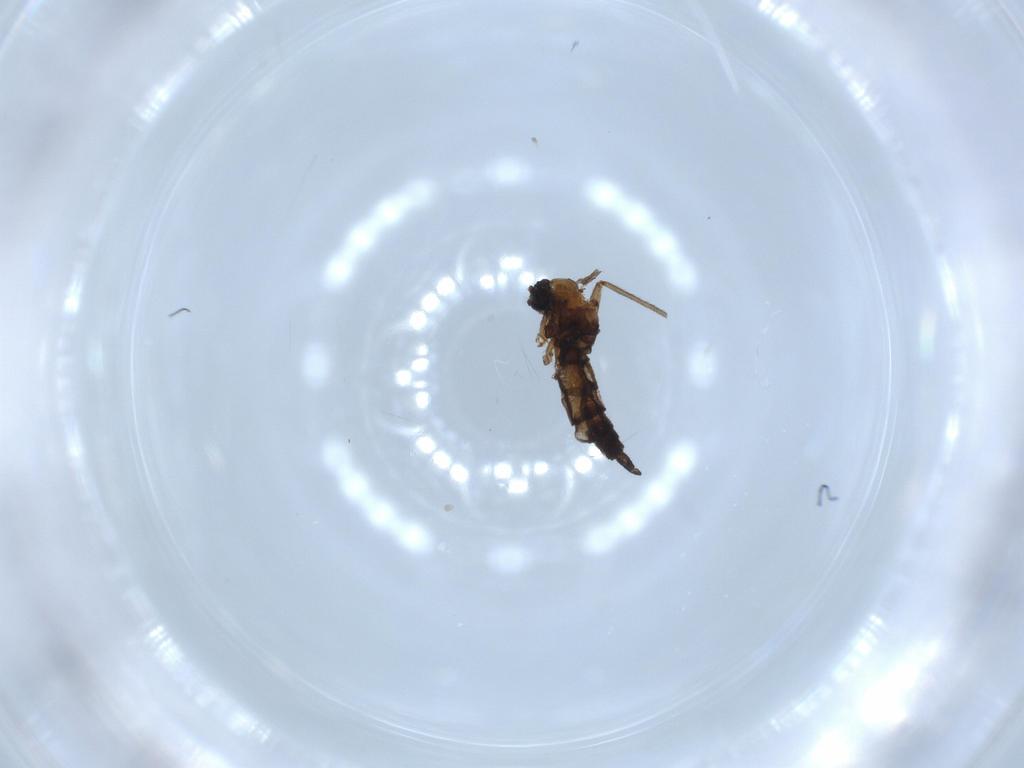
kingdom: Animalia
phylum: Arthropoda
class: Insecta
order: Diptera
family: Sciaridae
